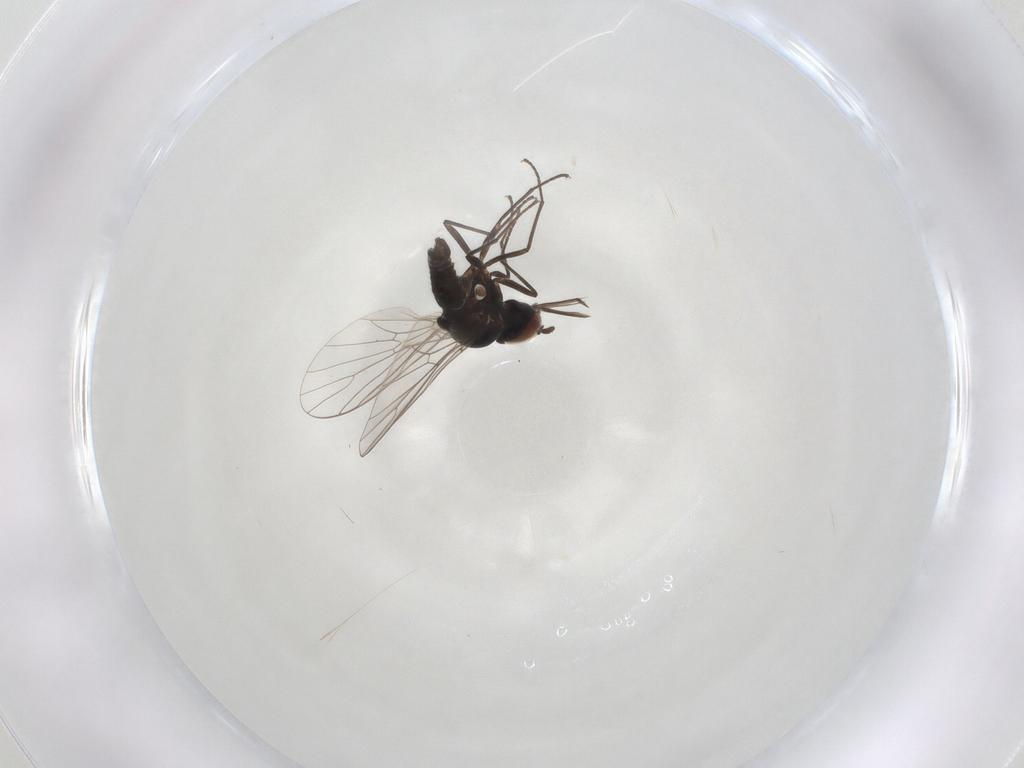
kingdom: Animalia
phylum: Arthropoda
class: Insecta
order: Diptera
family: Bombyliidae
